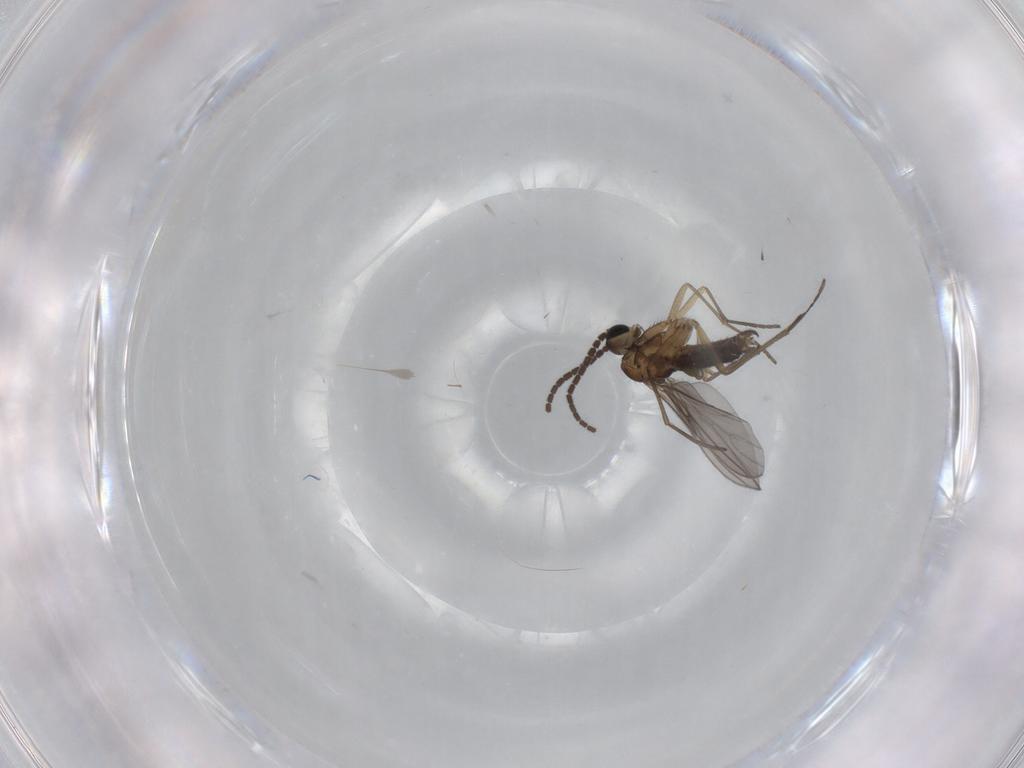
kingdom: Animalia
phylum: Arthropoda
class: Insecta
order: Diptera
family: Sciaridae
